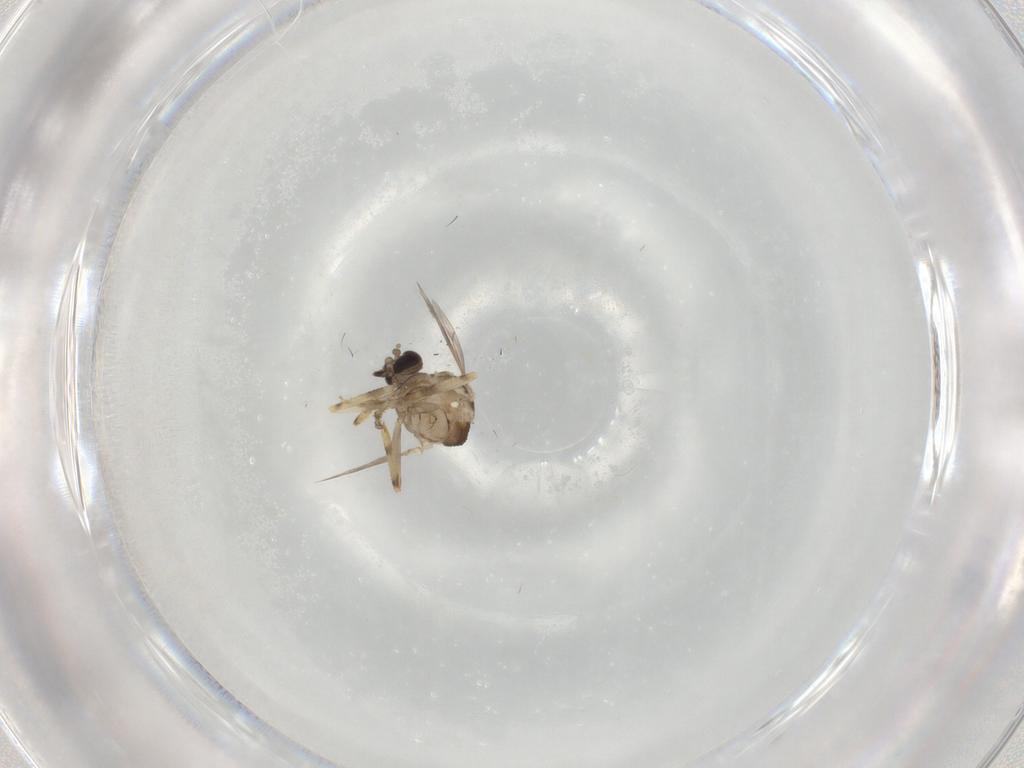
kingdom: Animalia
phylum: Arthropoda
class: Insecta
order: Diptera
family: Ceratopogonidae
